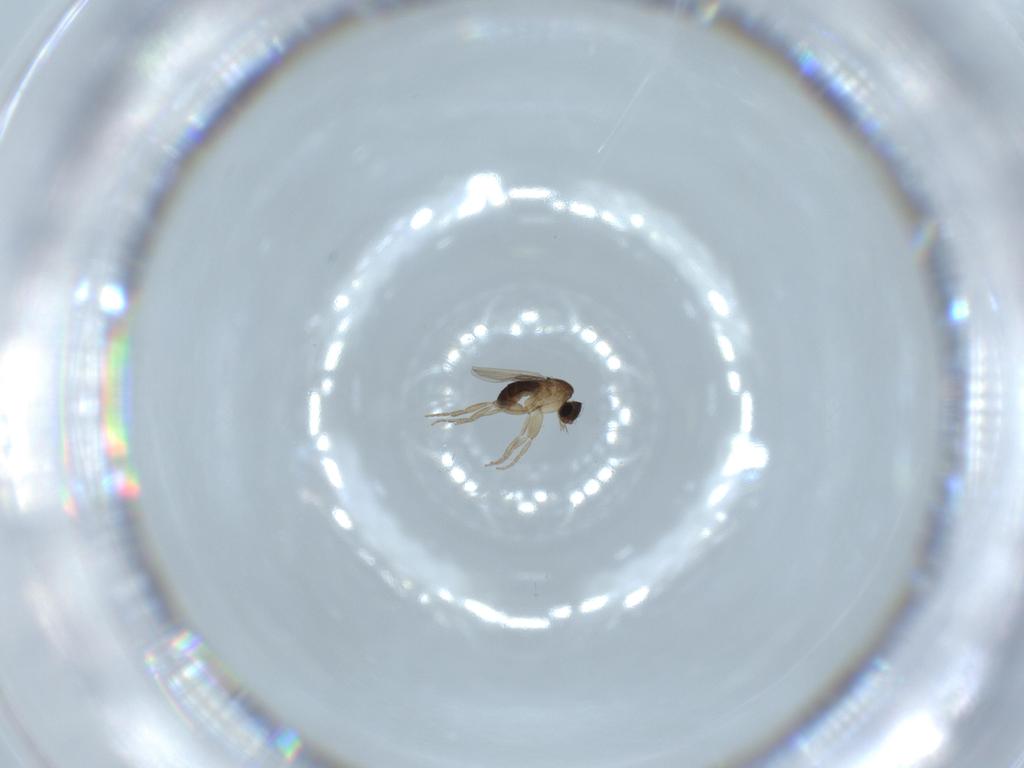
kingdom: Animalia
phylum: Arthropoda
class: Insecta
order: Diptera
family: Phoridae
